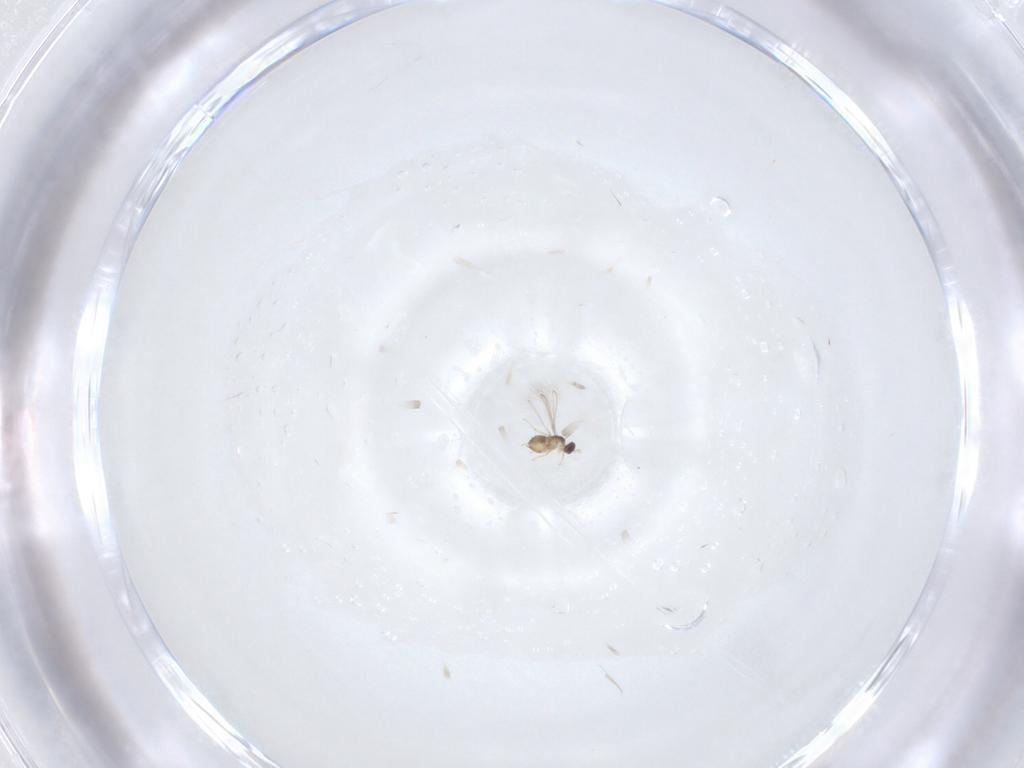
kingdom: Animalia
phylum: Arthropoda
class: Insecta
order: Hymenoptera
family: Mymaridae
